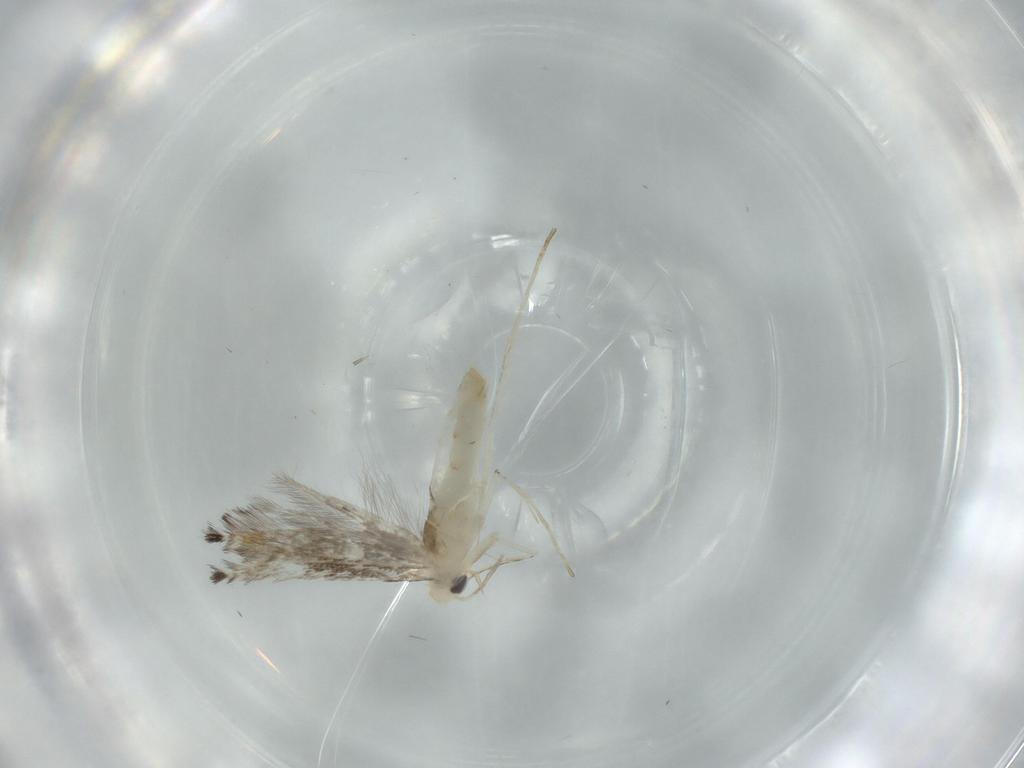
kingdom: Animalia
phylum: Arthropoda
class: Insecta
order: Lepidoptera
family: Gracillariidae
